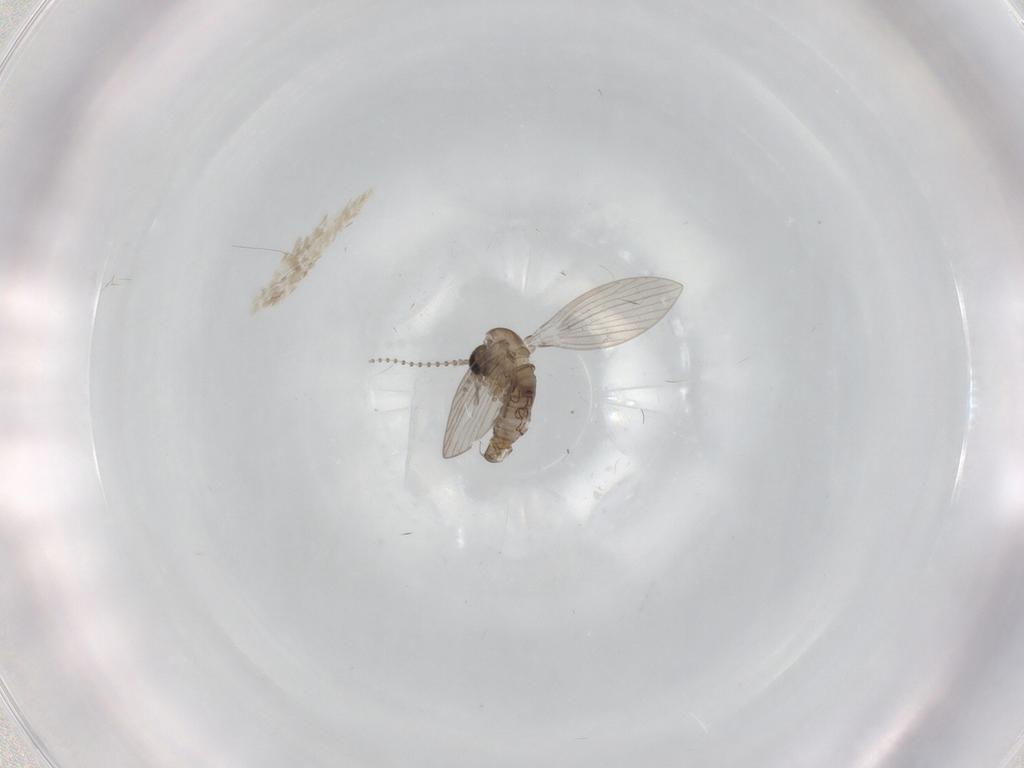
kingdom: Animalia
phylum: Arthropoda
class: Insecta
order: Diptera
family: Psychodidae
